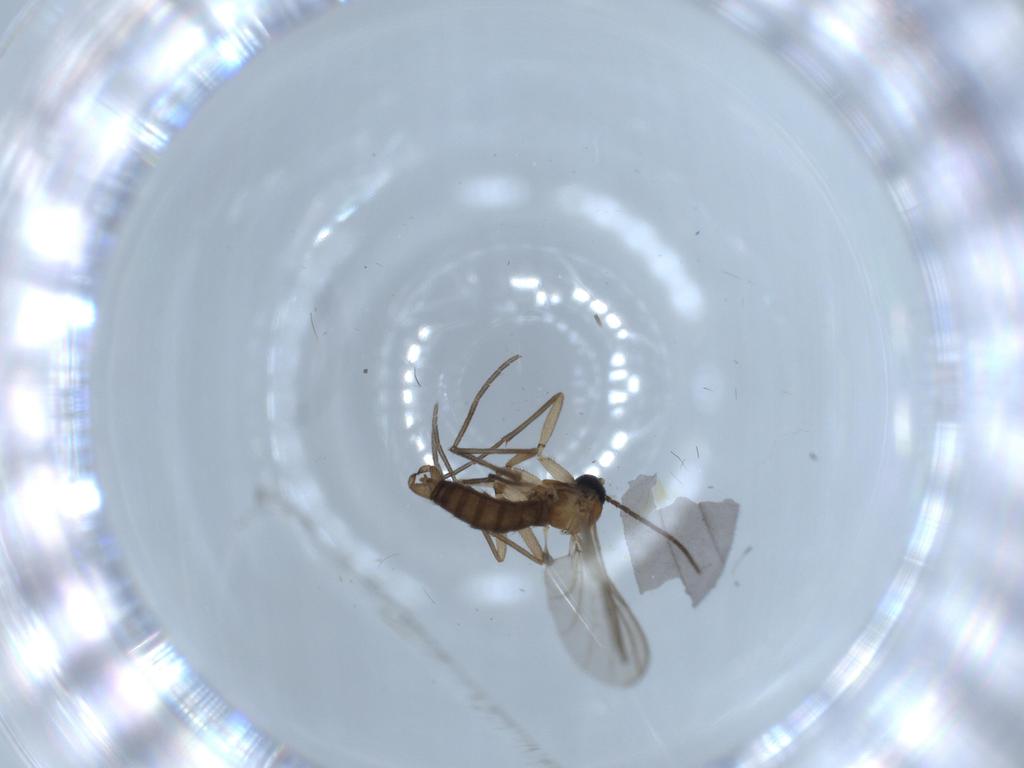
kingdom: Animalia
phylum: Arthropoda
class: Insecta
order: Diptera
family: Sciaridae
